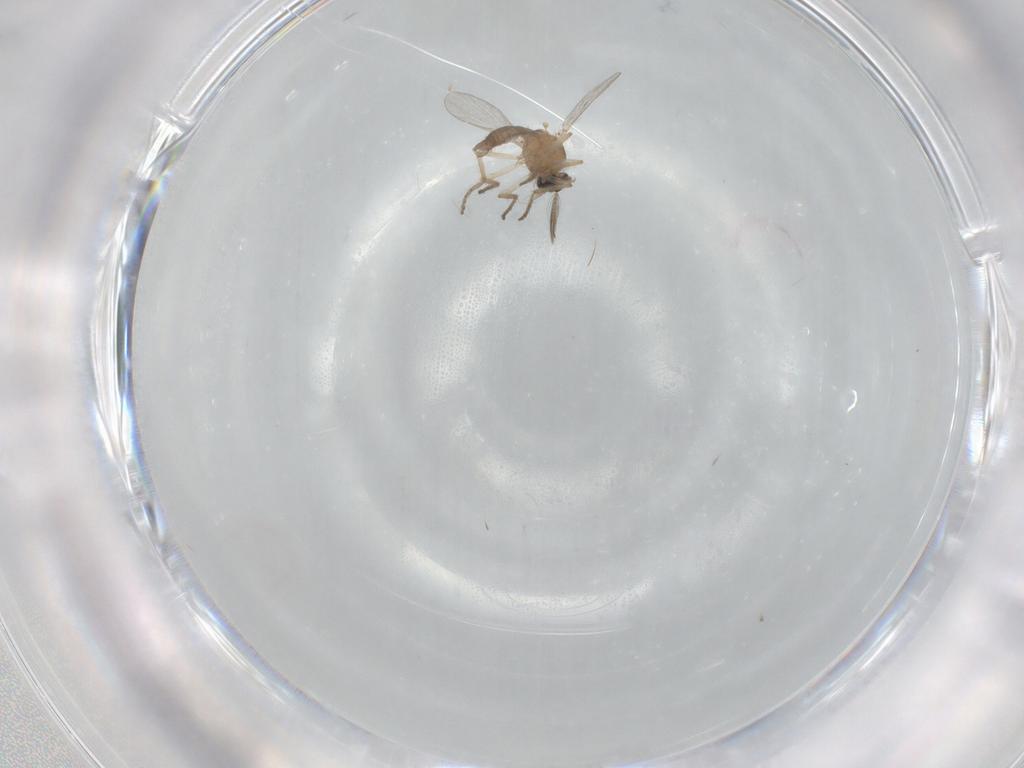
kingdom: Animalia
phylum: Arthropoda
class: Insecta
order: Diptera
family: Ceratopogonidae
